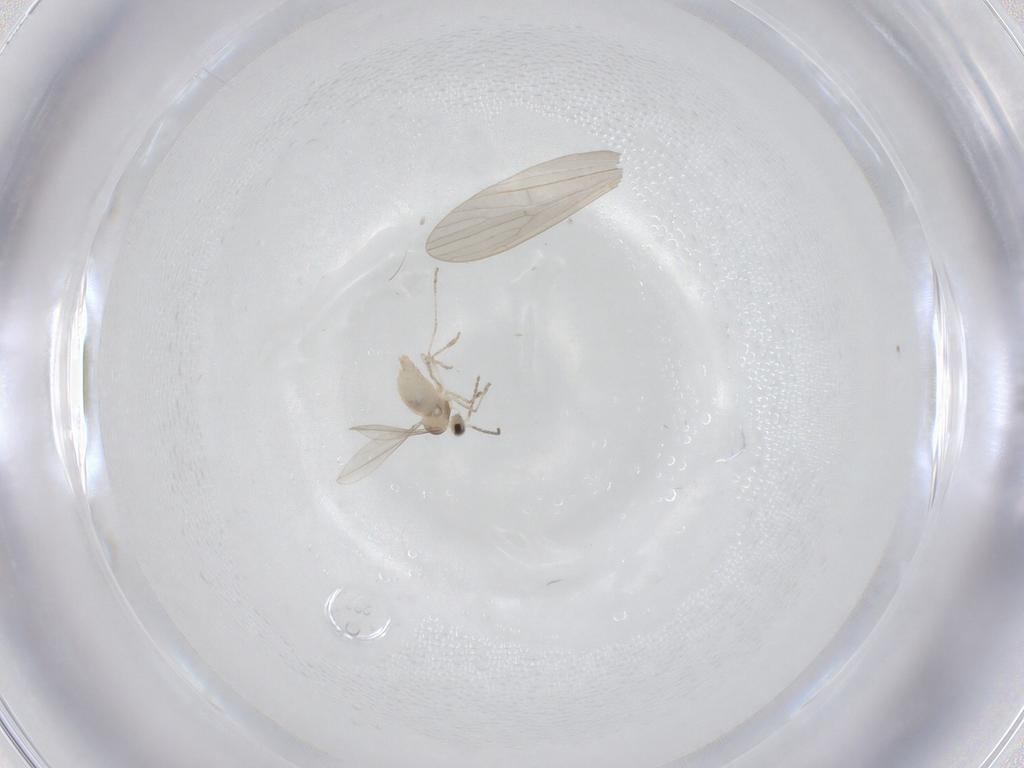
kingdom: Animalia
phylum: Arthropoda
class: Insecta
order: Diptera
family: Limoniidae
